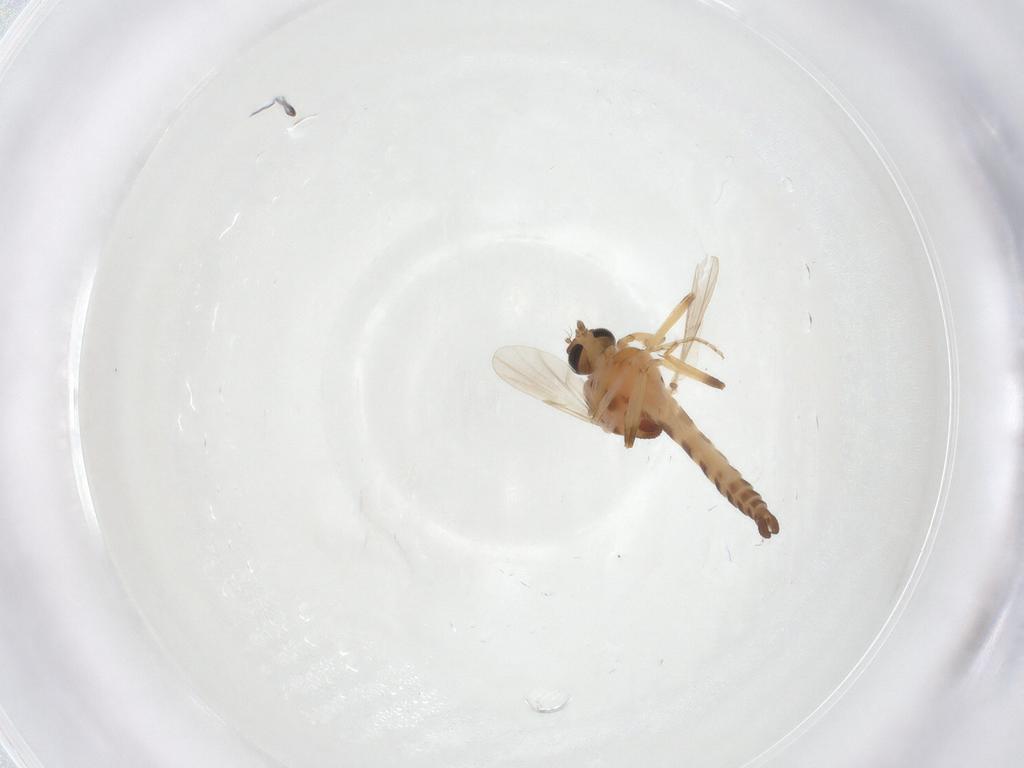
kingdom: Animalia
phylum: Arthropoda
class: Insecta
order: Diptera
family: Ceratopogonidae
